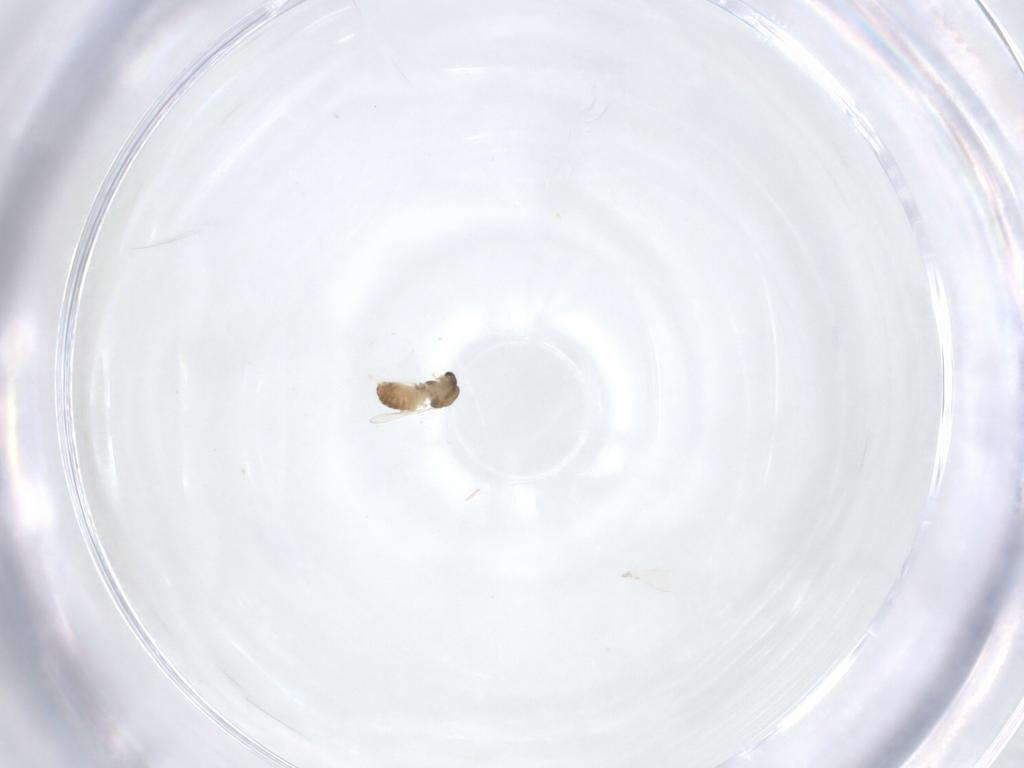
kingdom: Animalia
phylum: Arthropoda
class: Insecta
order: Diptera
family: Chironomidae
